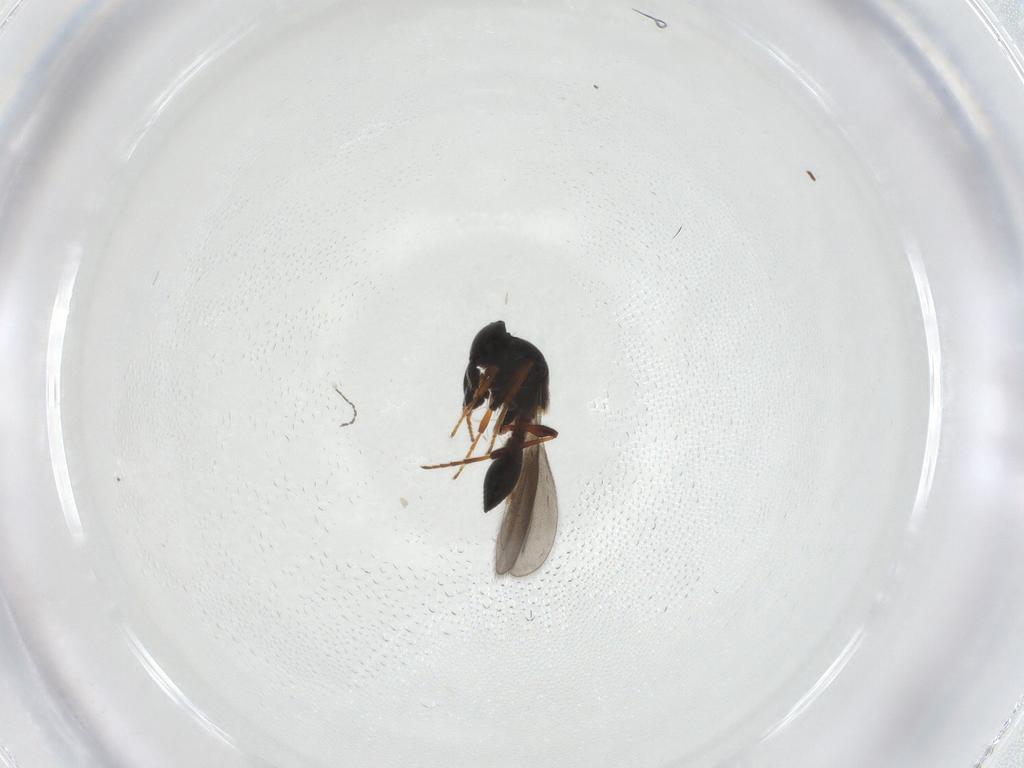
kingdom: Animalia
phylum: Arthropoda
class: Insecta
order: Hymenoptera
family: Platygastridae
